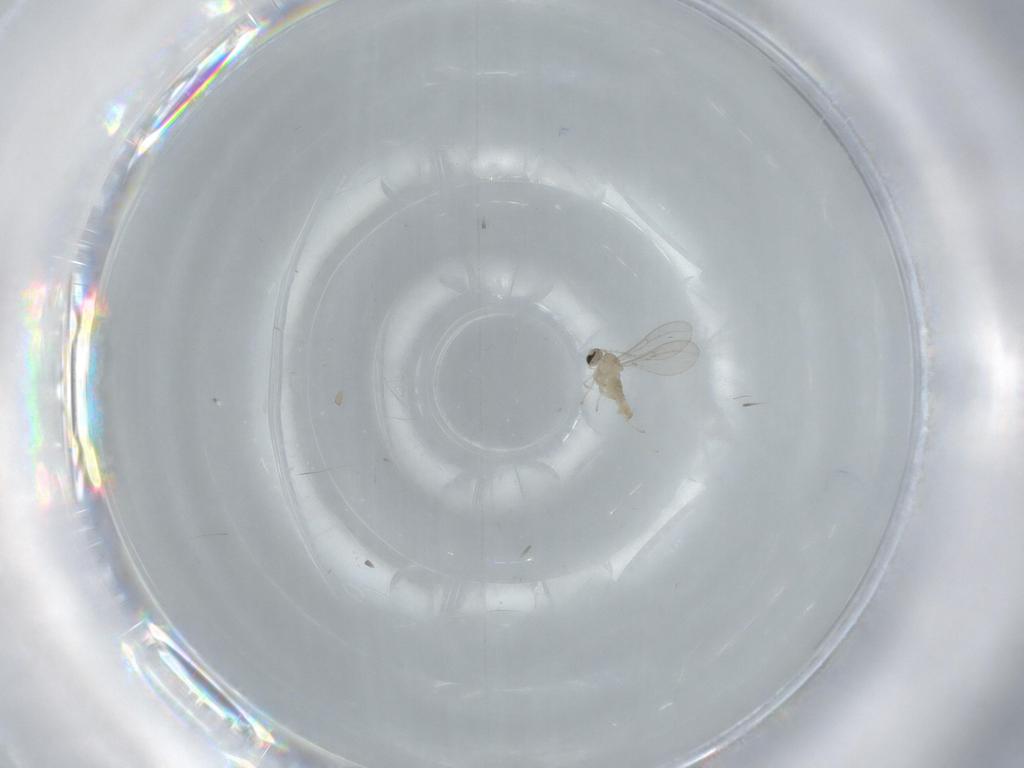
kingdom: Animalia
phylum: Arthropoda
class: Insecta
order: Diptera
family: Cecidomyiidae
